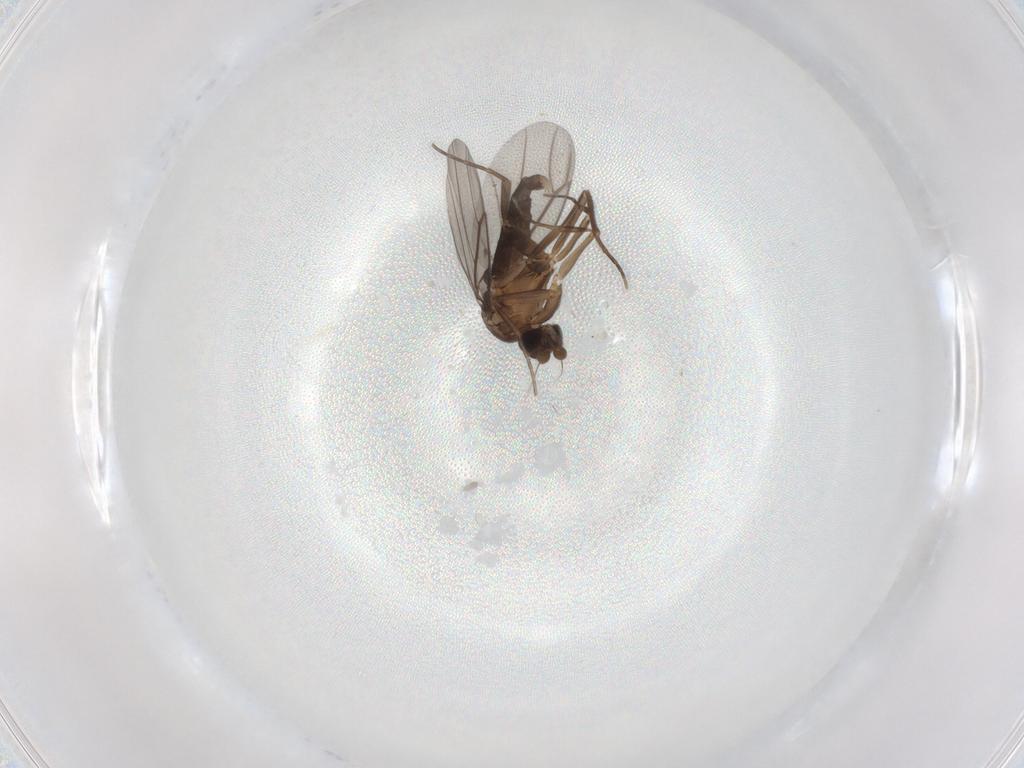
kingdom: Animalia
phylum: Arthropoda
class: Insecta
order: Diptera
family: Phoridae
